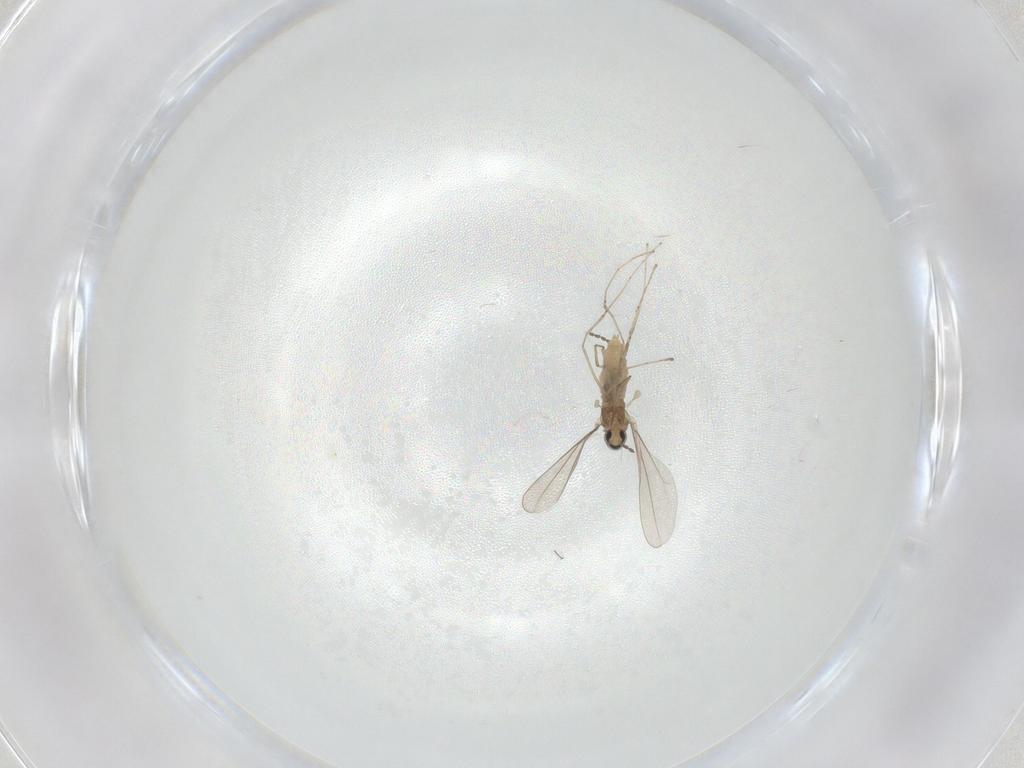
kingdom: Animalia
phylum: Arthropoda
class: Insecta
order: Diptera
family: Cecidomyiidae
